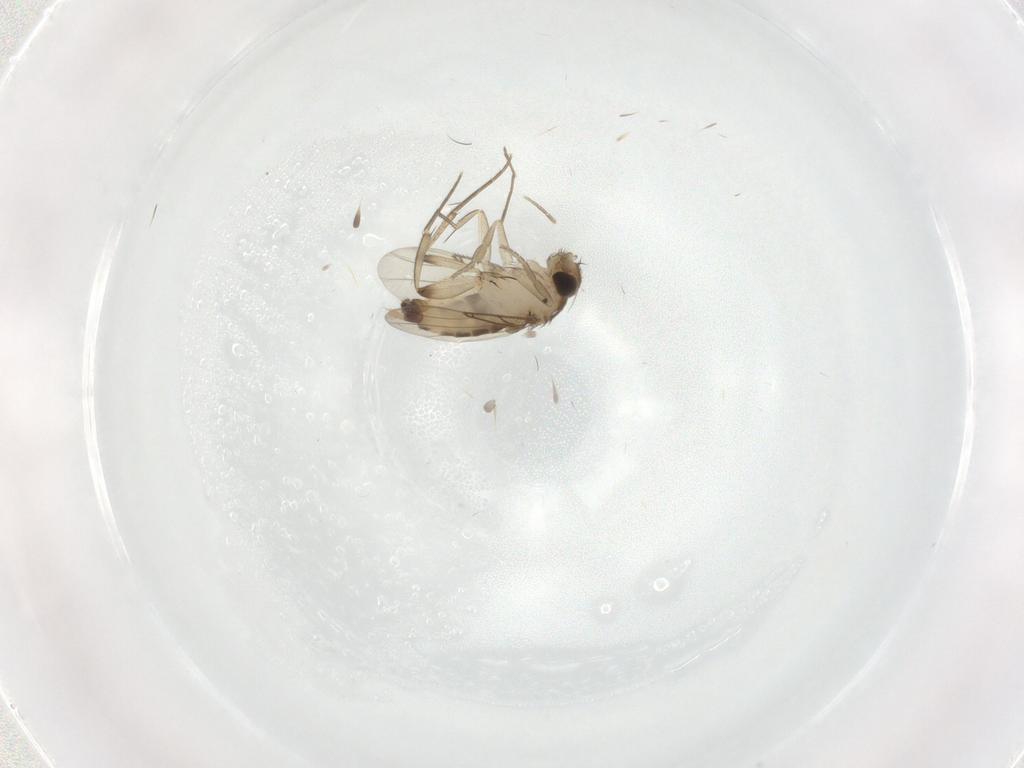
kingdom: Animalia
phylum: Arthropoda
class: Insecta
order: Diptera
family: Phoridae
